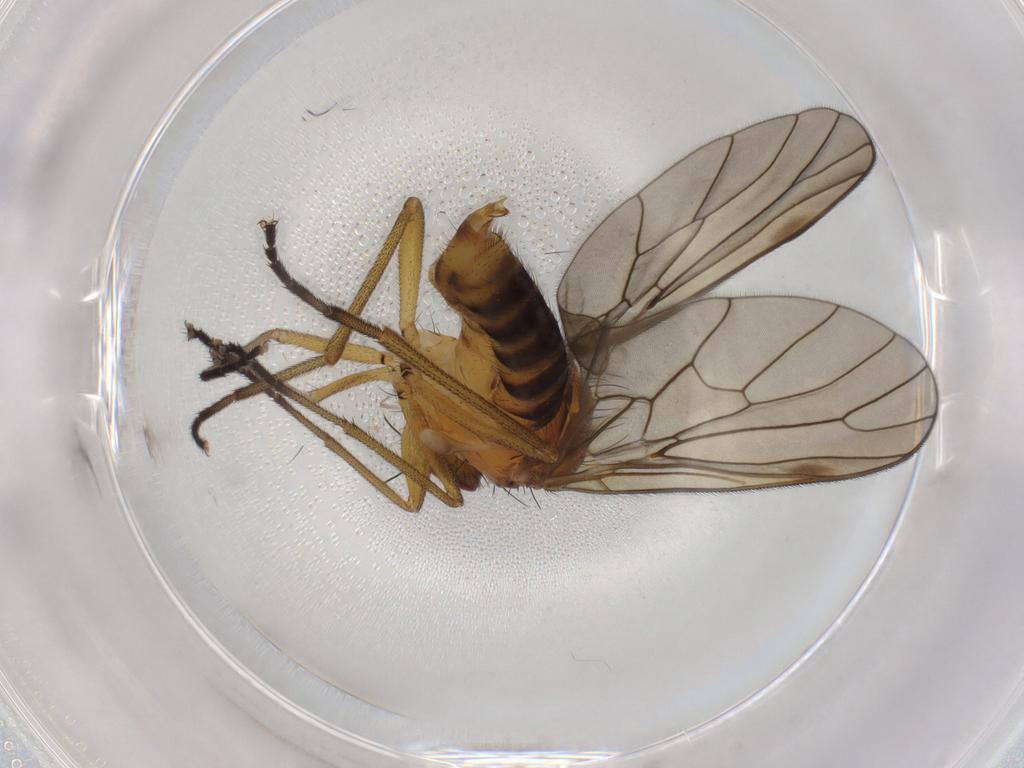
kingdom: Animalia
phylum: Arthropoda
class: Insecta
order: Diptera
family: Brachystomatidae
